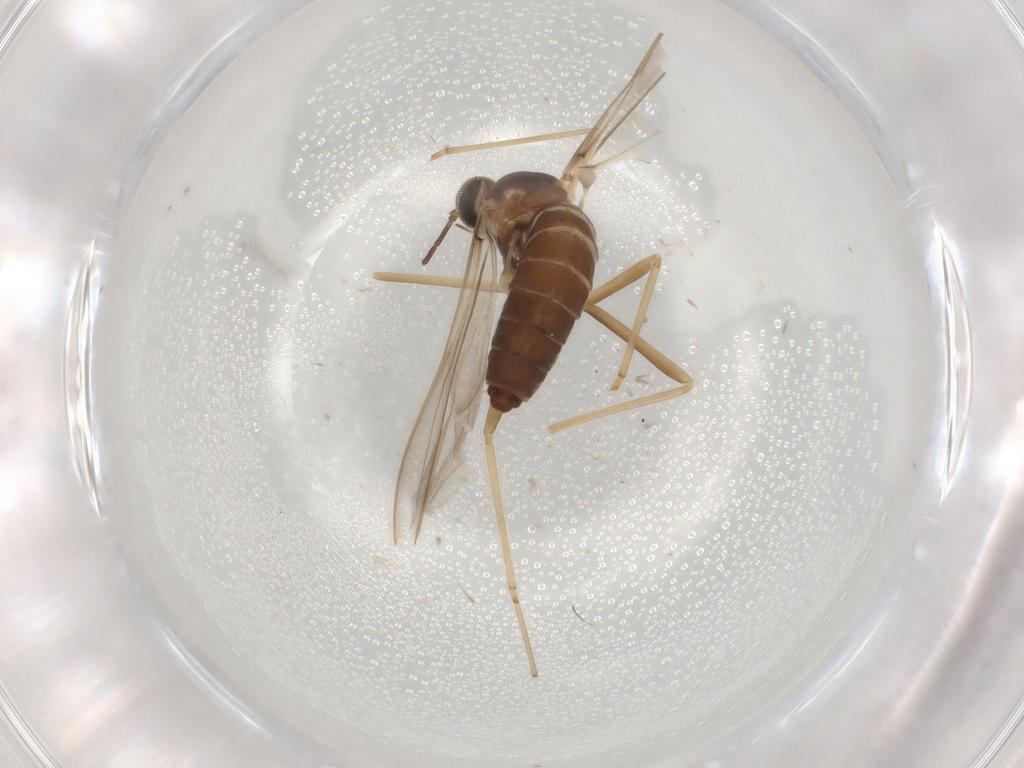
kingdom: Animalia
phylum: Arthropoda
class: Insecta
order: Diptera
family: Cecidomyiidae
